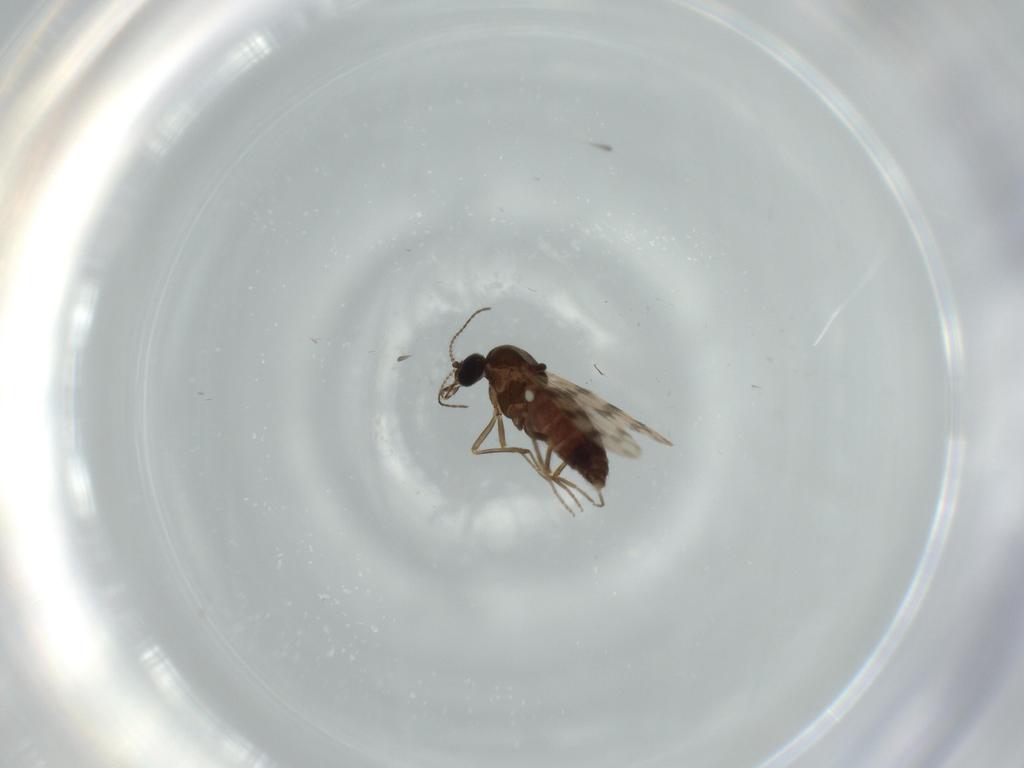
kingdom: Animalia
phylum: Arthropoda
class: Insecta
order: Diptera
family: Ceratopogonidae
